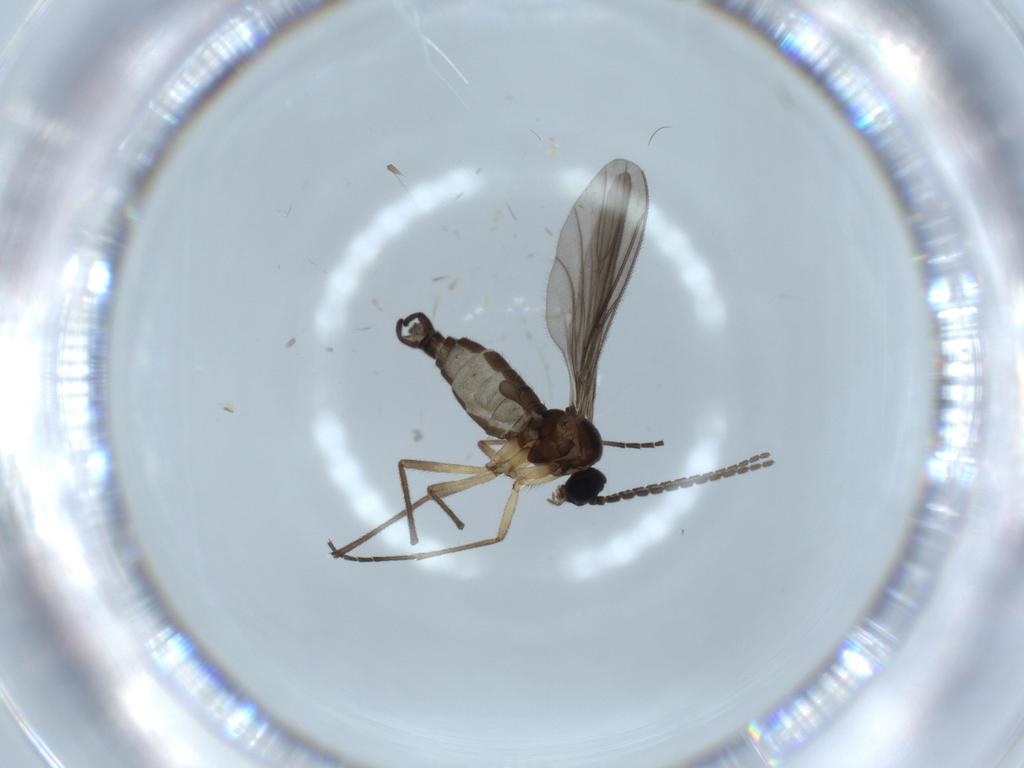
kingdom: Animalia
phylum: Arthropoda
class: Insecta
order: Diptera
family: Sciaridae
